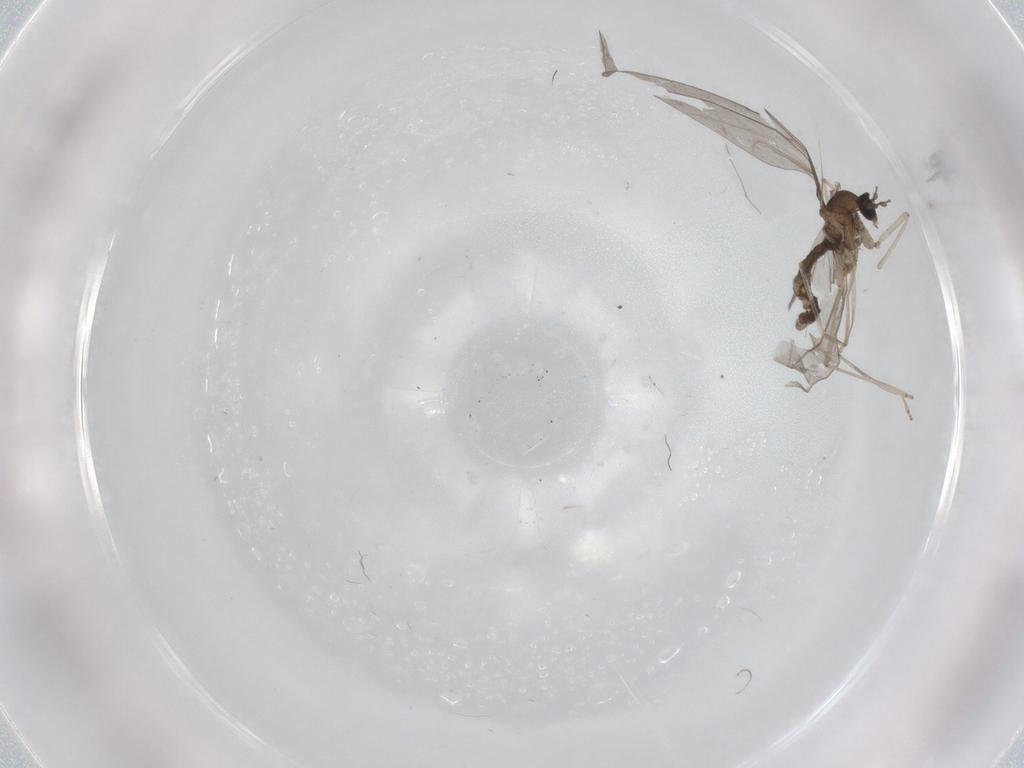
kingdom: Animalia
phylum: Arthropoda
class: Insecta
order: Diptera
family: Cecidomyiidae
